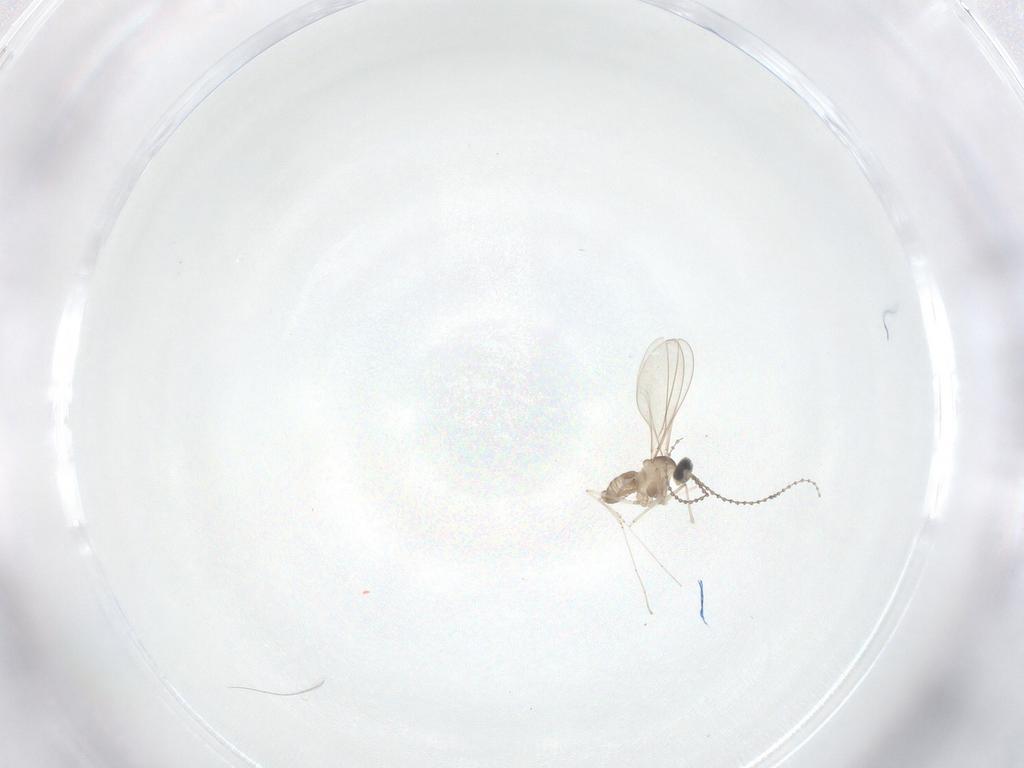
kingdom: Animalia
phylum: Arthropoda
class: Insecta
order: Diptera
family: Cecidomyiidae
